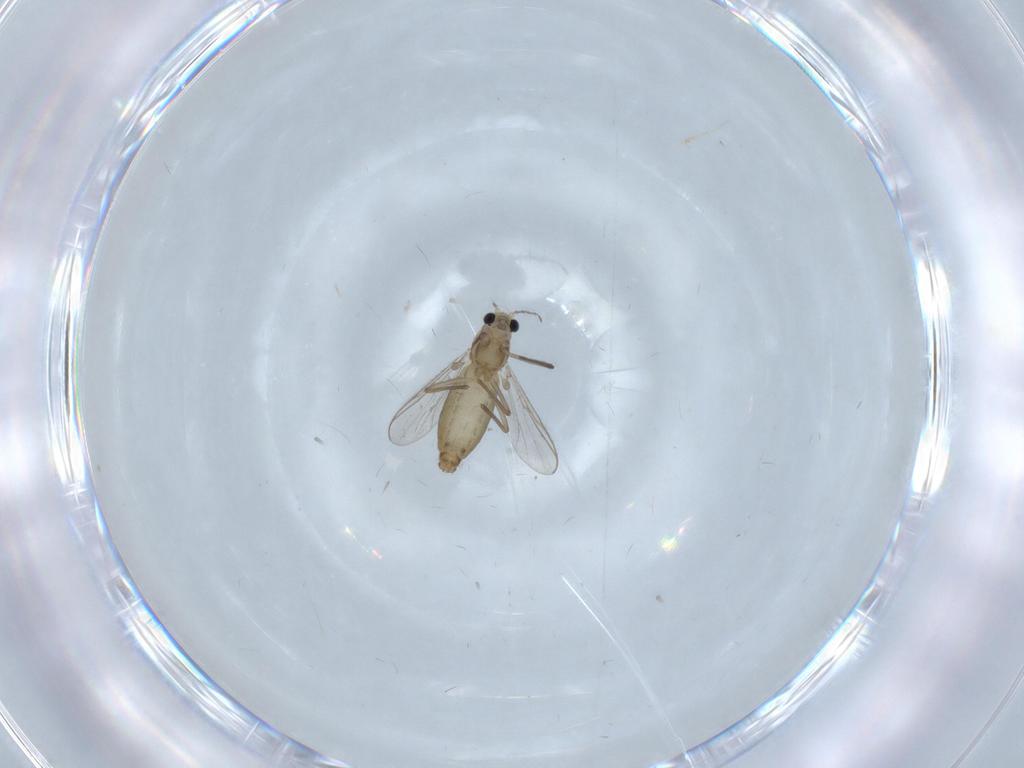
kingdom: Animalia
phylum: Arthropoda
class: Insecta
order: Diptera
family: Chironomidae
